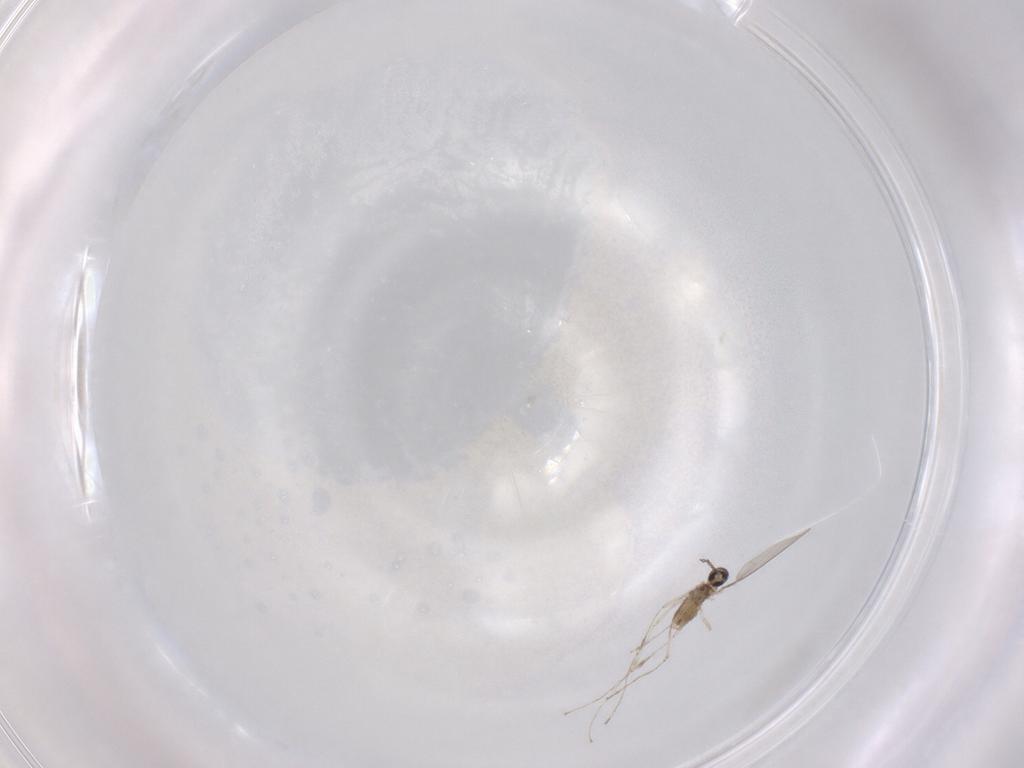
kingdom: Animalia
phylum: Arthropoda
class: Insecta
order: Diptera
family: Cecidomyiidae
